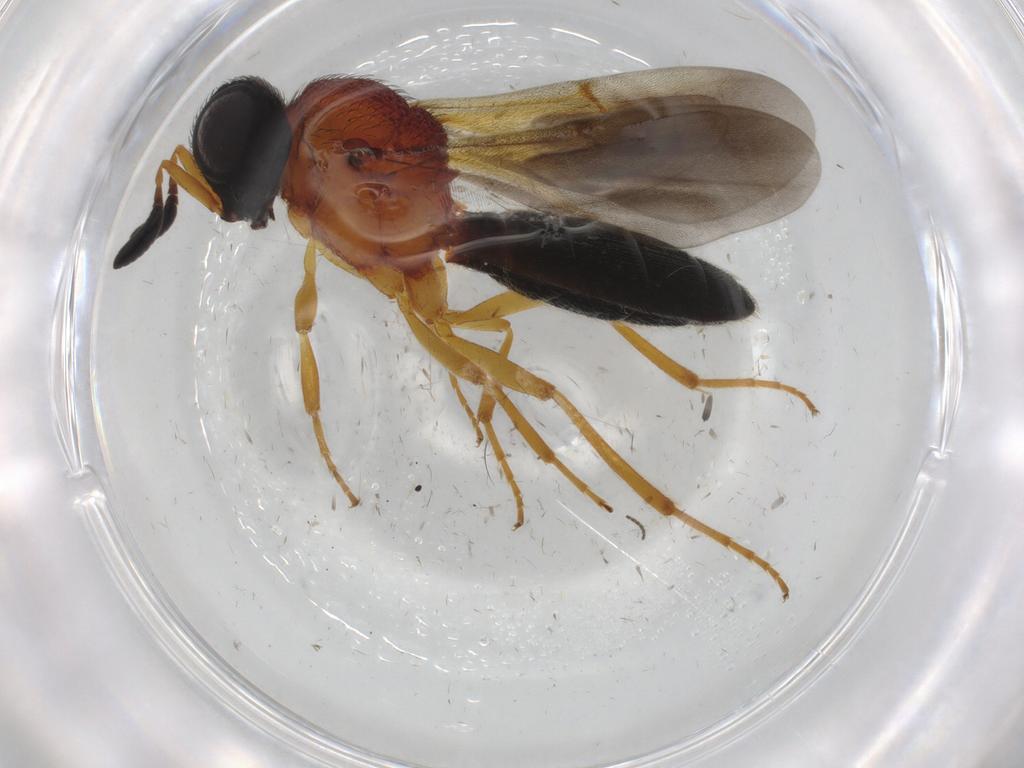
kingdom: Animalia
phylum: Arthropoda
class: Insecta
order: Hymenoptera
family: Scelionidae
